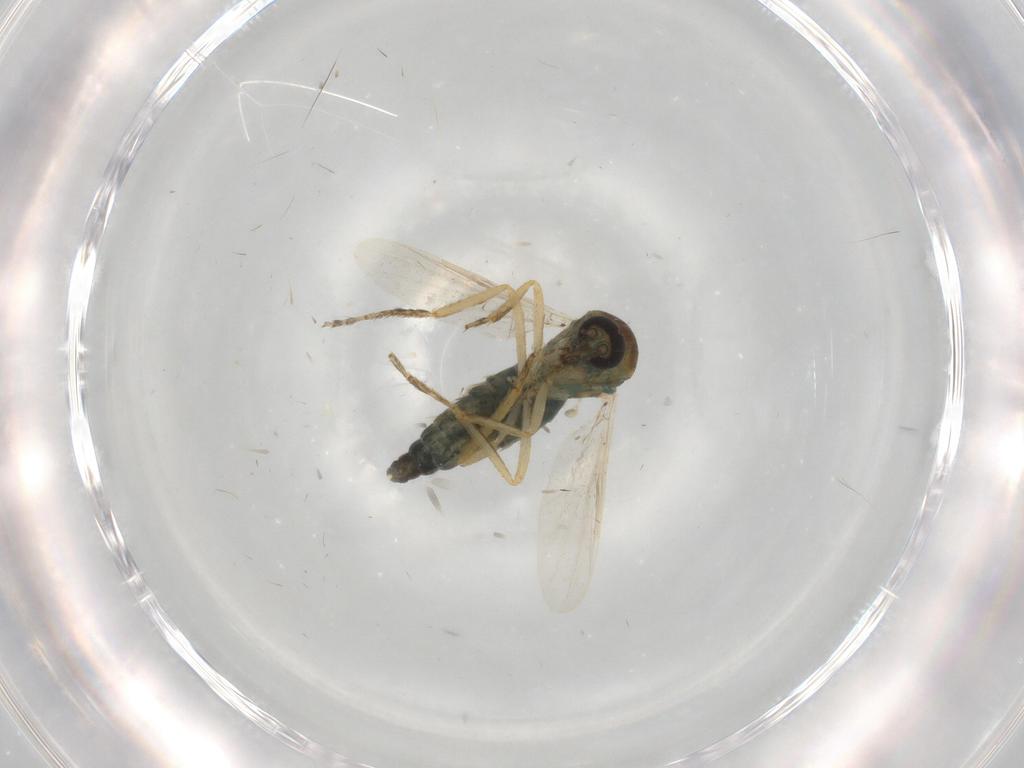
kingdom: Animalia
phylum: Arthropoda
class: Insecta
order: Diptera
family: Ceratopogonidae
